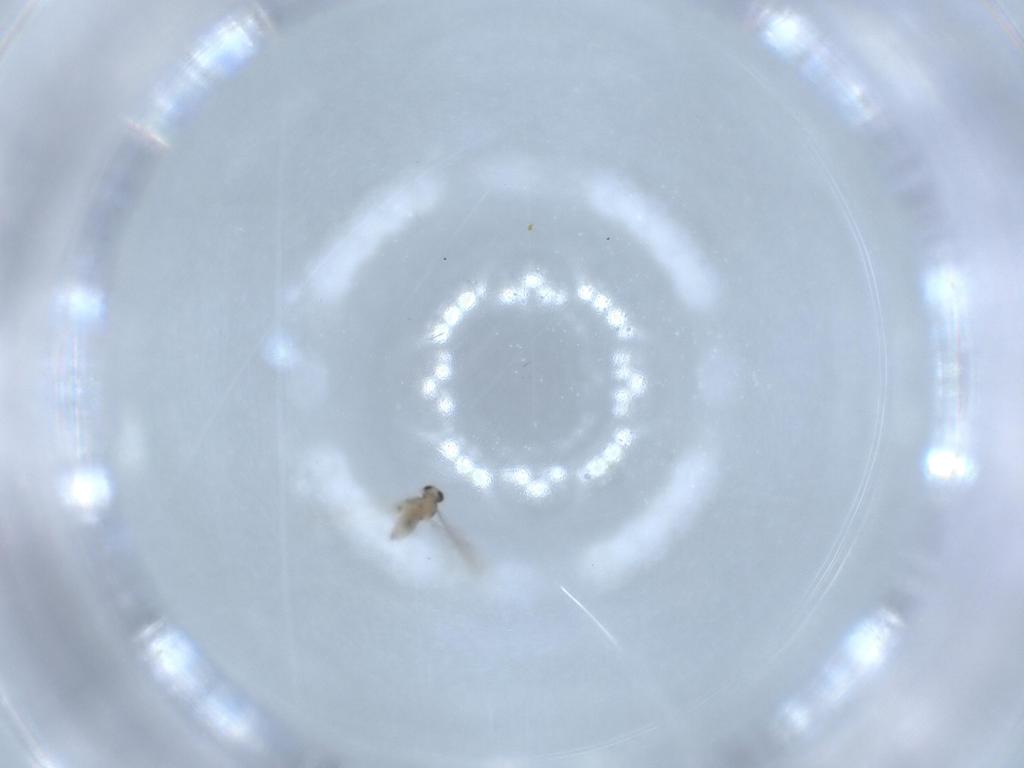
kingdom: Animalia
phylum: Arthropoda
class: Insecta
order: Diptera
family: Cecidomyiidae
